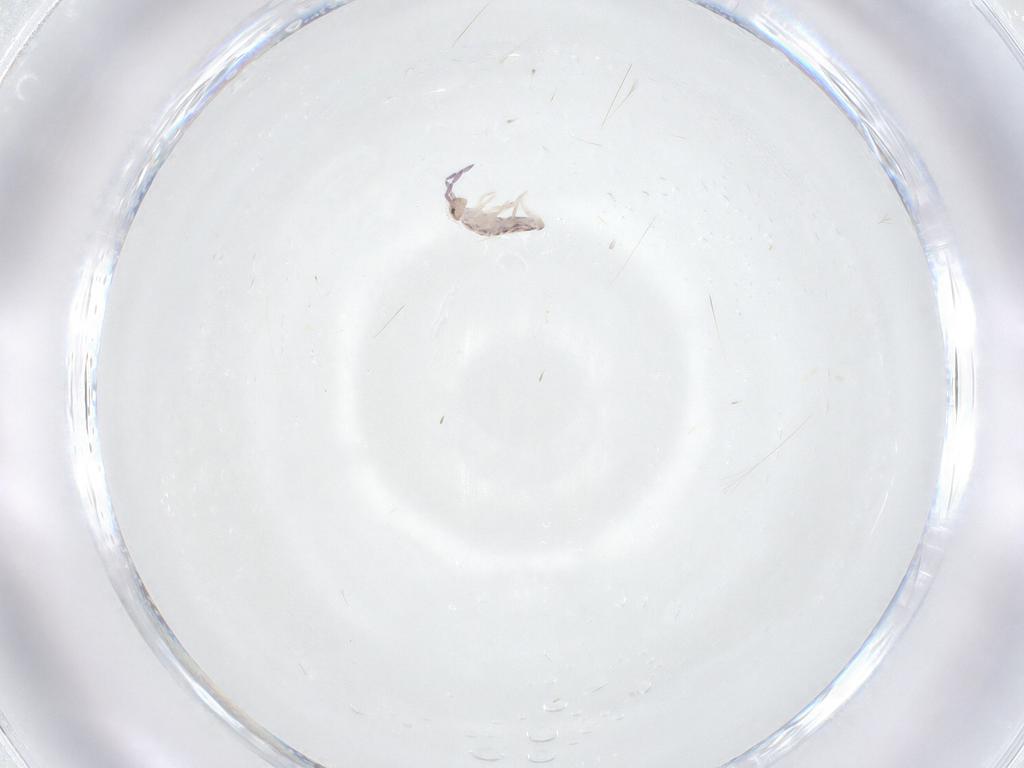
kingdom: Animalia
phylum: Arthropoda
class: Collembola
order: Entomobryomorpha
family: Entomobryidae
